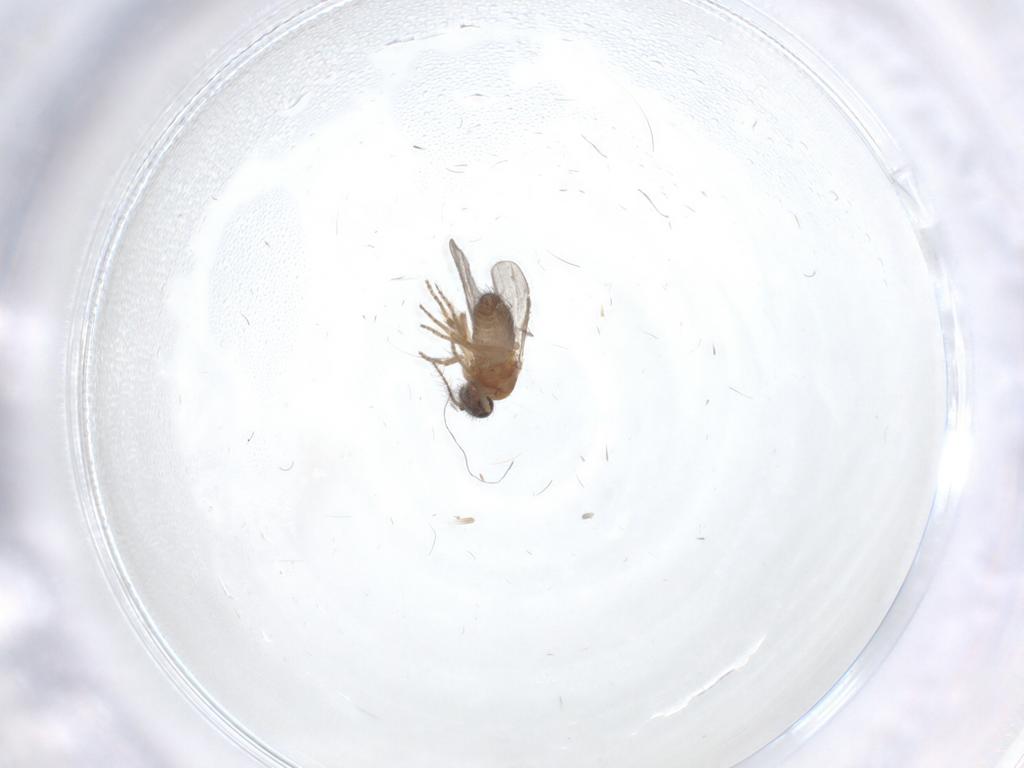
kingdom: Animalia
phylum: Arthropoda
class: Insecta
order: Diptera
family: Ceratopogonidae
